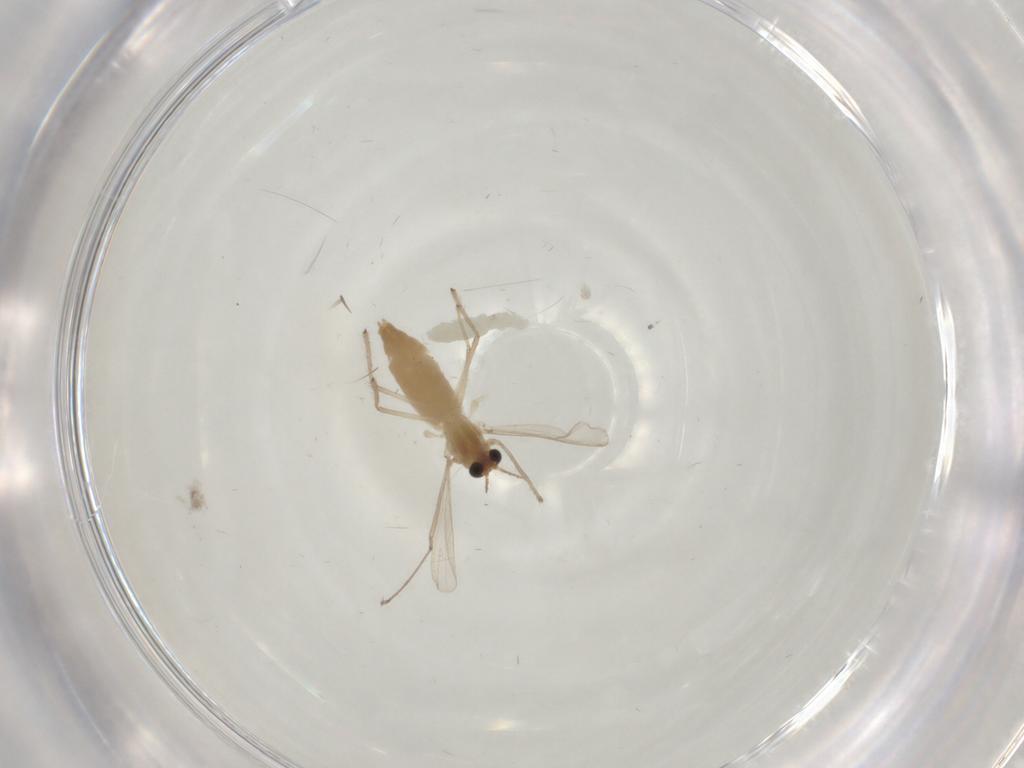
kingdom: Animalia
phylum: Arthropoda
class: Insecta
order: Diptera
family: Chironomidae
